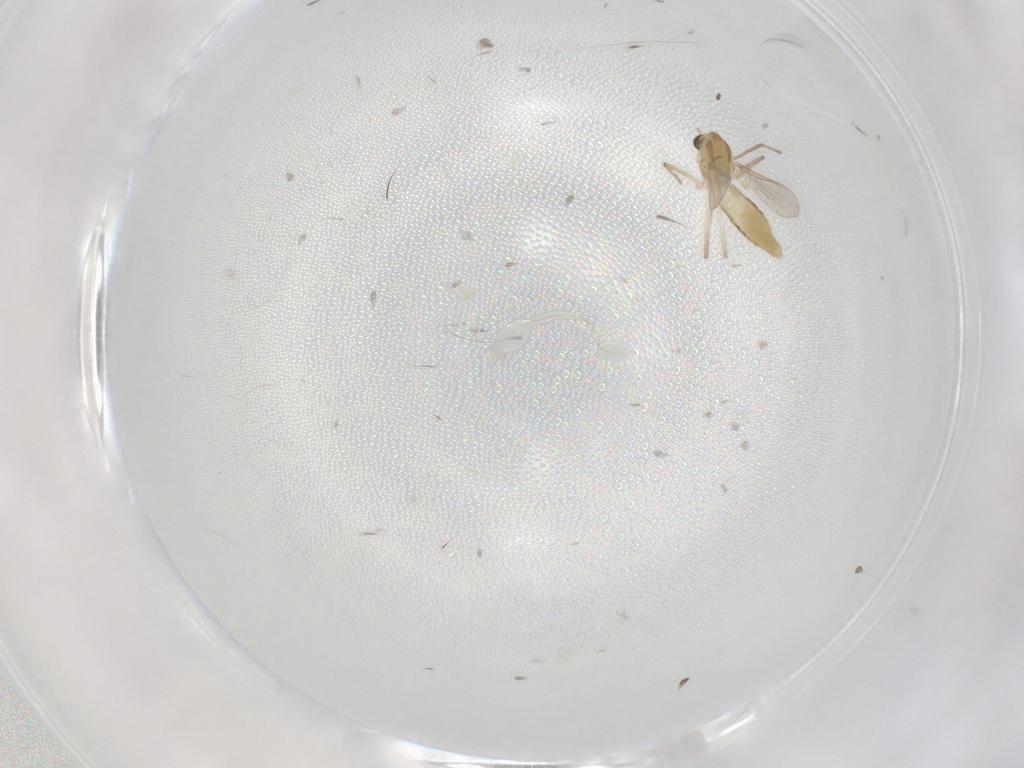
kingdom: Animalia
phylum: Arthropoda
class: Insecta
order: Diptera
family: Chironomidae
